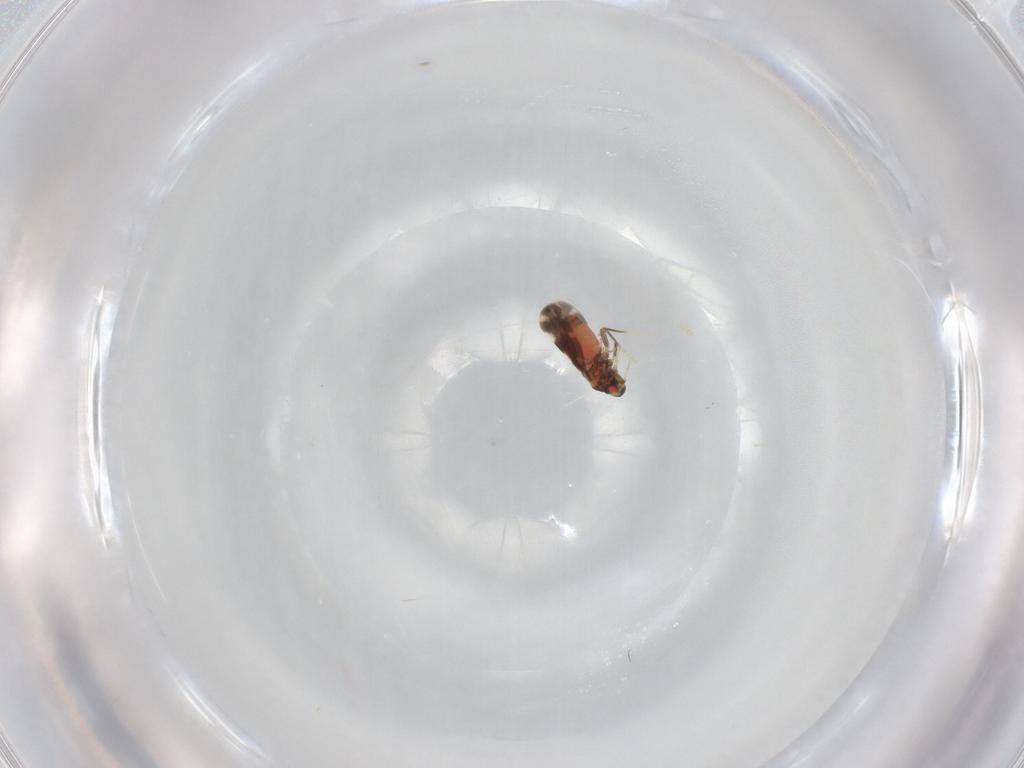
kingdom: Animalia
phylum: Arthropoda
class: Insecta
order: Hemiptera
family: Aleyrodidae
